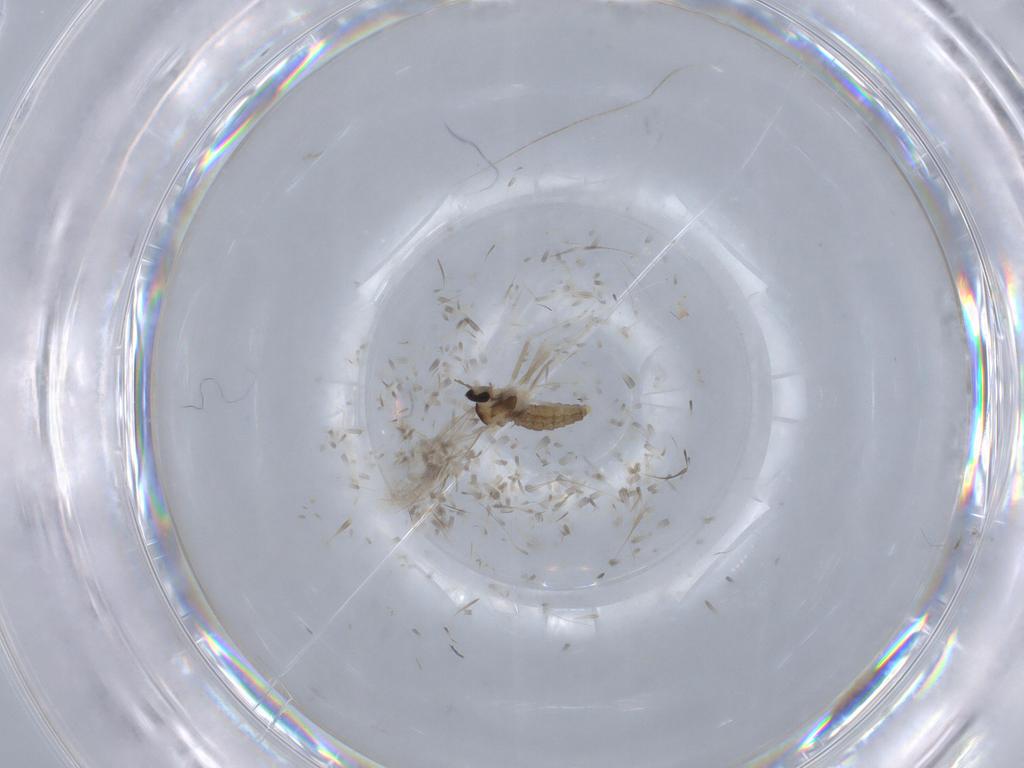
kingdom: Animalia
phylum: Arthropoda
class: Insecta
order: Diptera
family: Cecidomyiidae
